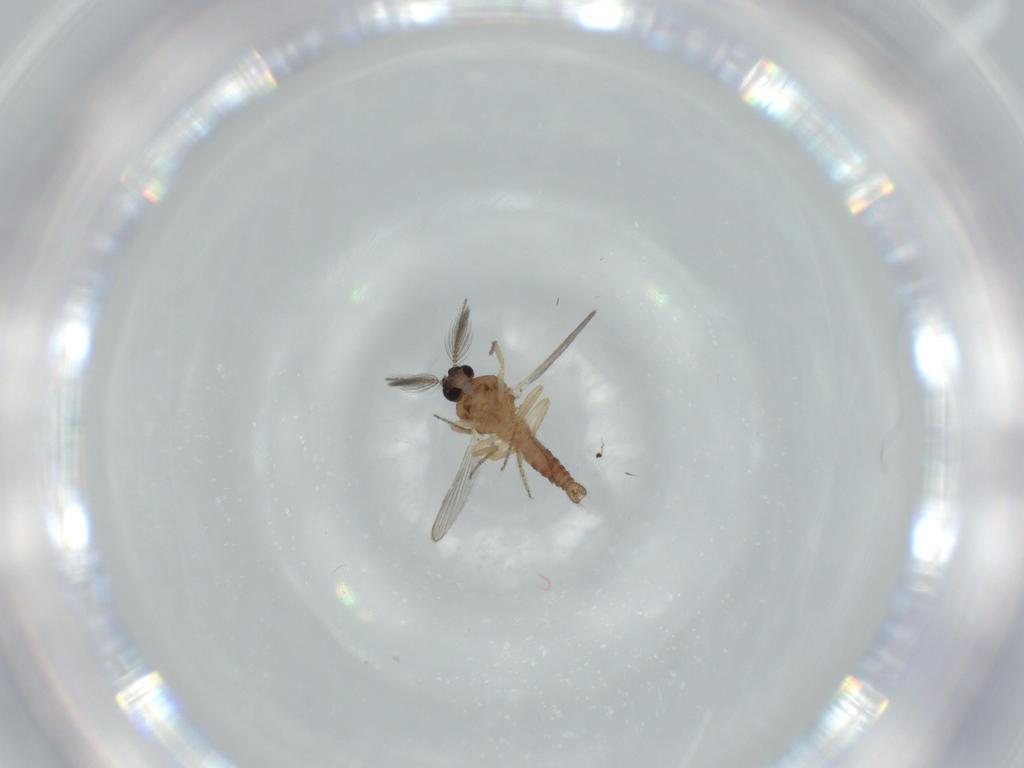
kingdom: Animalia
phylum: Arthropoda
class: Insecta
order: Diptera
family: Ceratopogonidae
